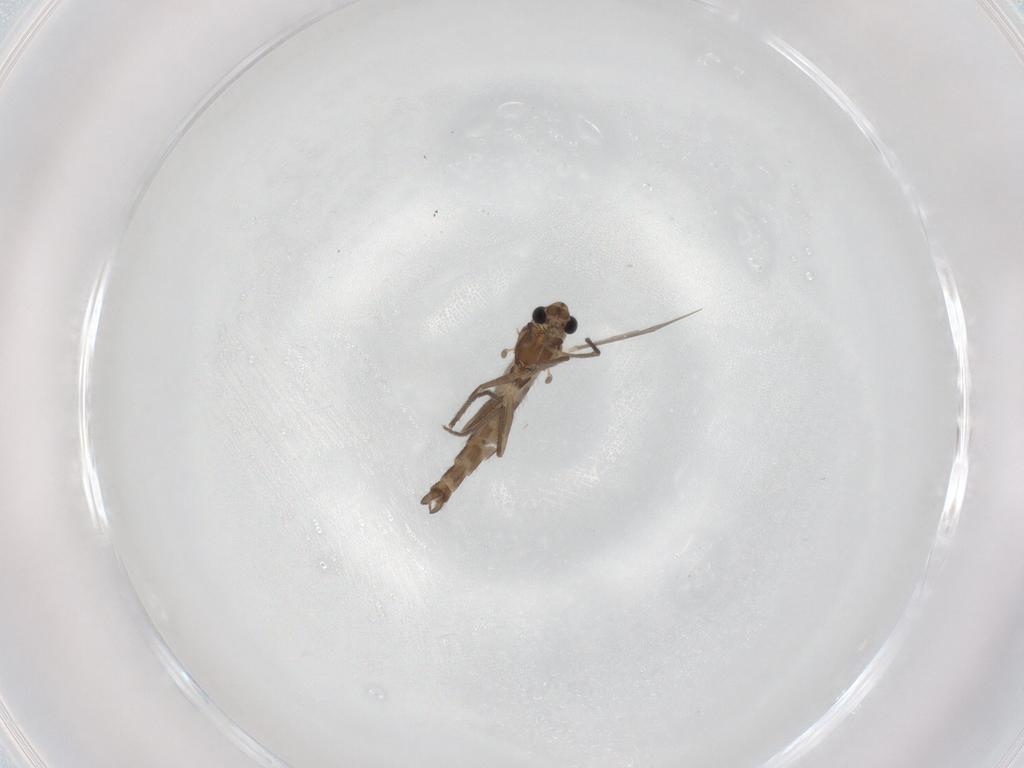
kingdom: Animalia
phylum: Arthropoda
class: Insecta
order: Diptera
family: Chironomidae
